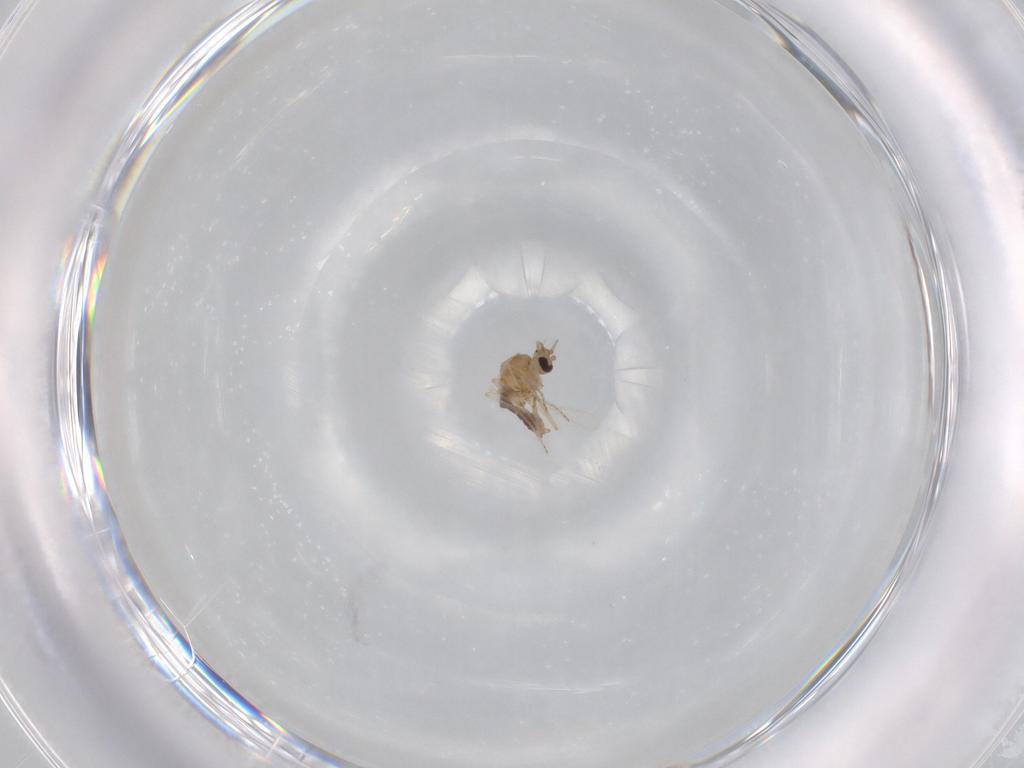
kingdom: Animalia
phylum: Arthropoda
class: Insecta
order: Diptera
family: Ceratopogonidae
